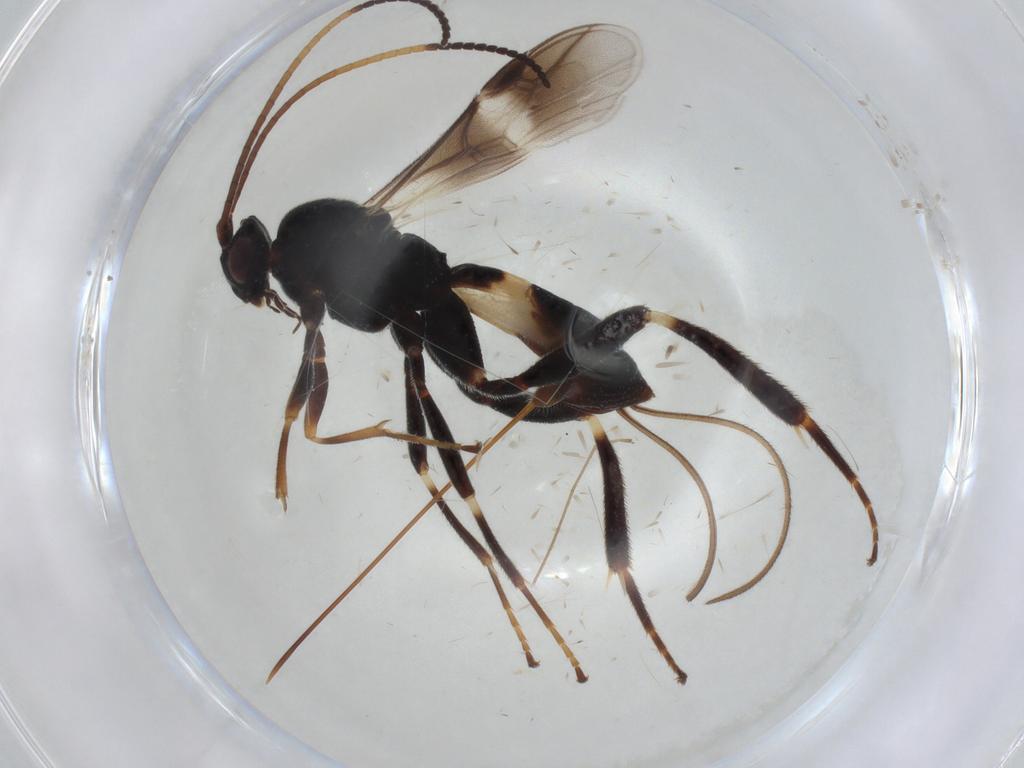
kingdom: Animalia
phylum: Arthropoda
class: Insecta
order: Hymenoptera
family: Braconidae
